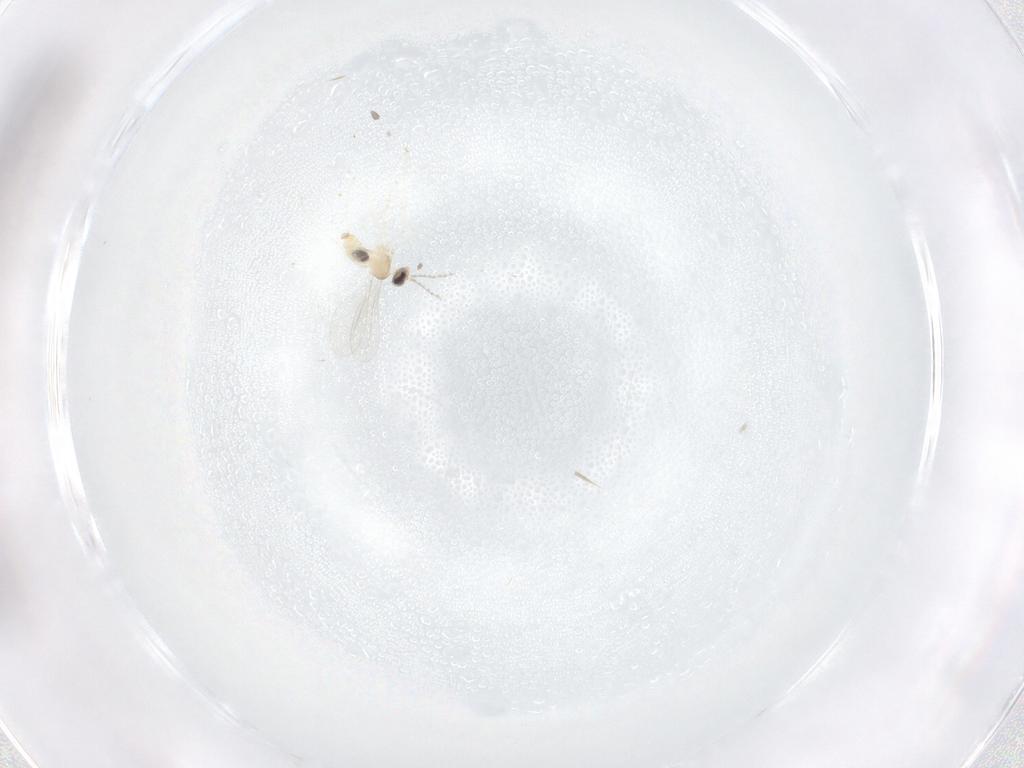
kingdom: Animalia
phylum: Arthropoda
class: Insecta
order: Diptera
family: Cecidomyiidae
